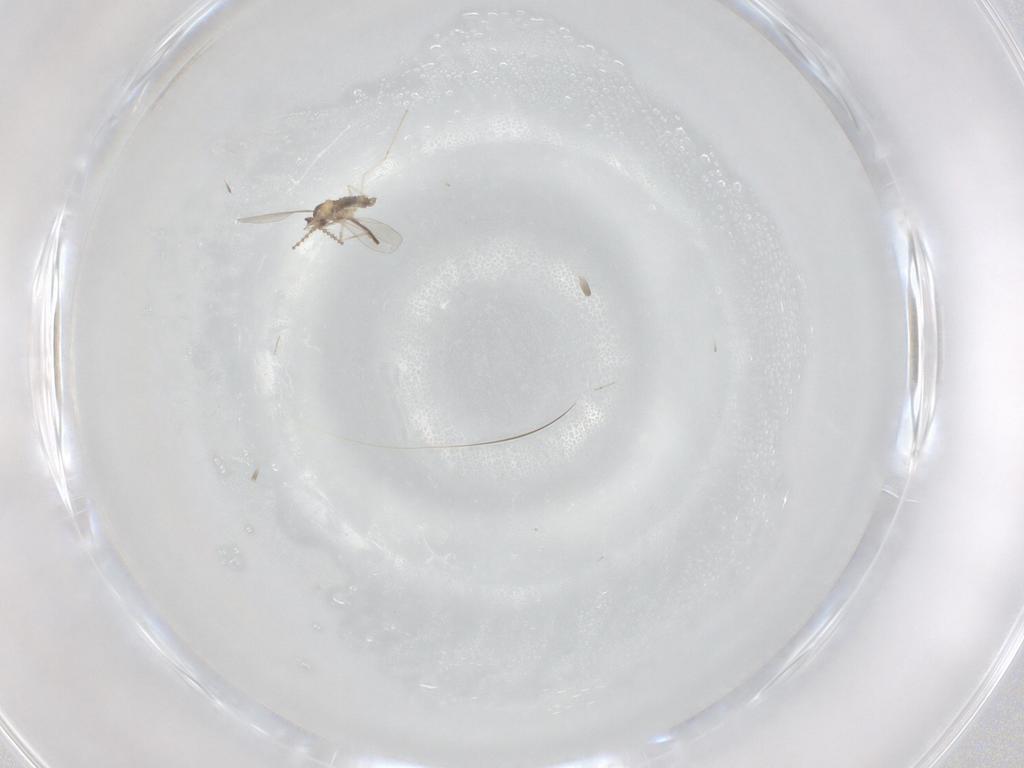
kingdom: Animalia
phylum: Arthropoda
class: Insecta
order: Diptera
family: Cecidomyiidae
